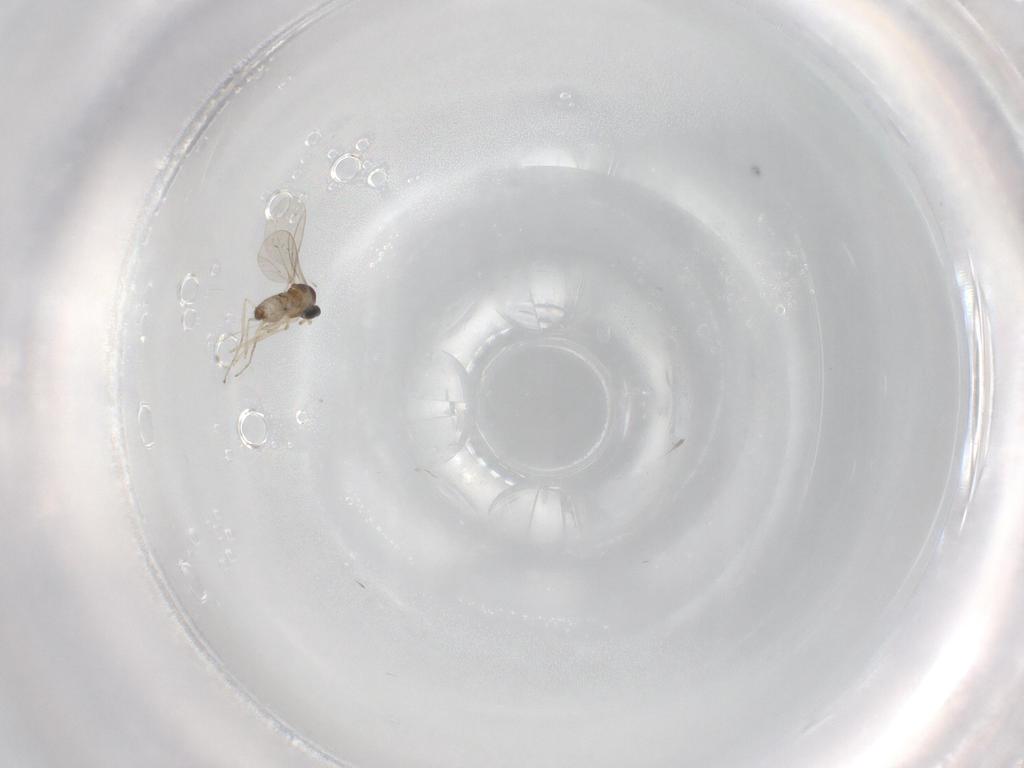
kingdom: Animalia
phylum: Arthropoda
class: Insecta
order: Diptera
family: Cecidomyiidae
